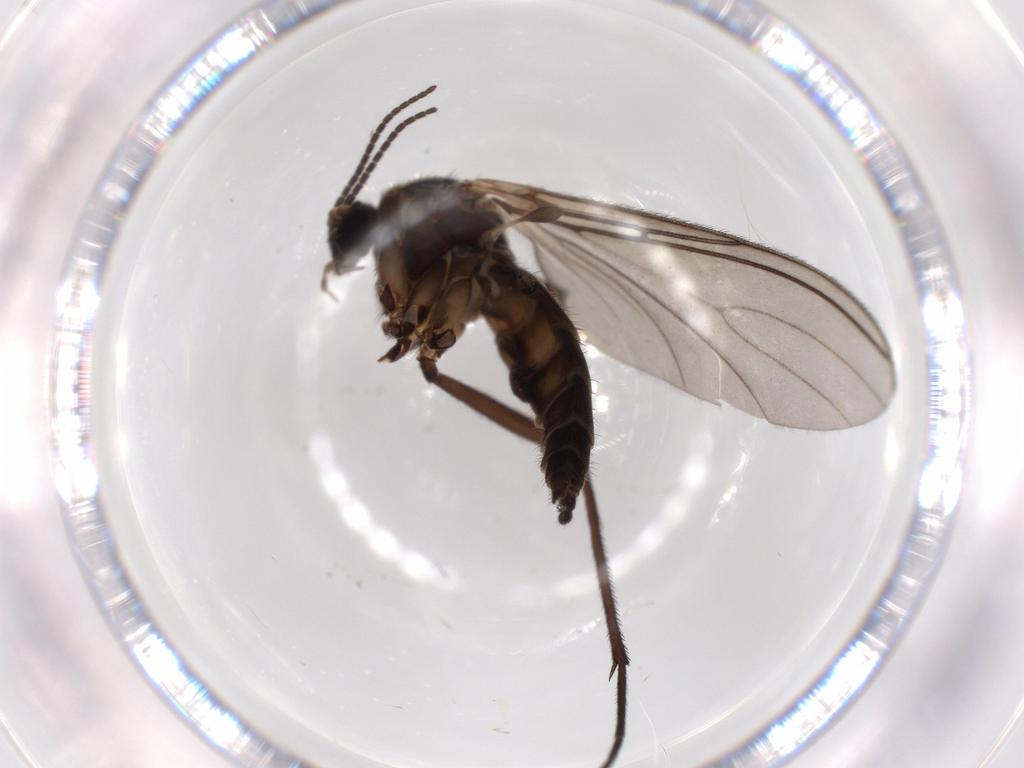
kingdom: Animalia
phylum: Arthropoda
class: Insecta
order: Diptera
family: Sciaridae
